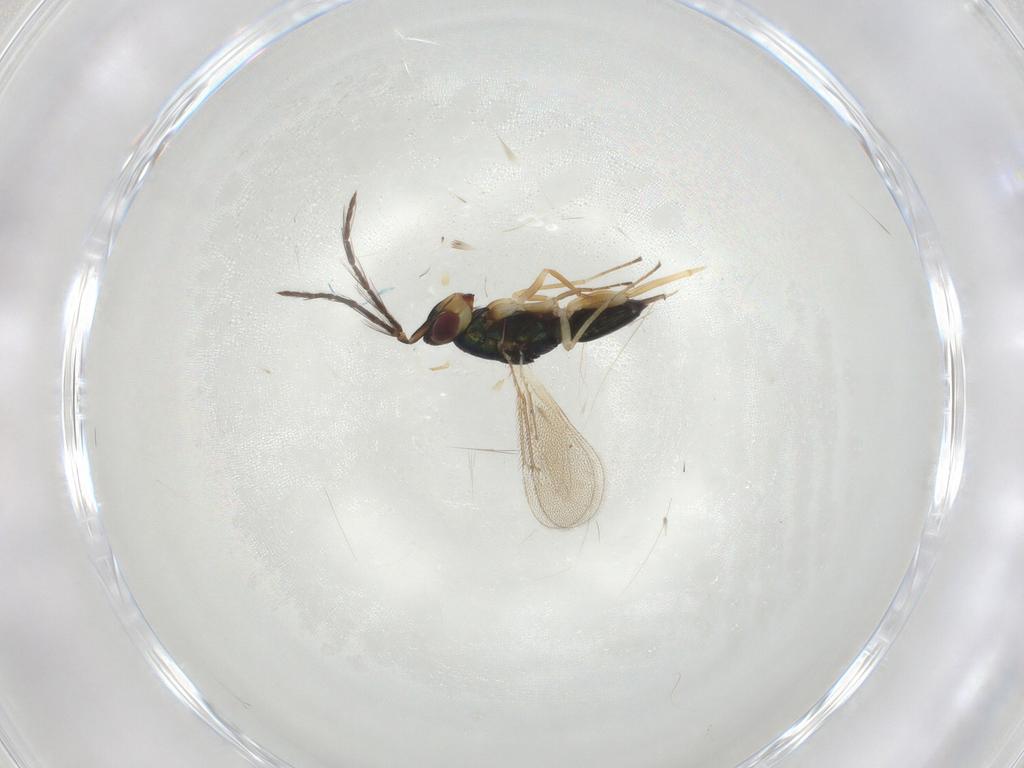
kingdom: Animalia
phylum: Arthropoda
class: Insecta
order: Hymenoptera
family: Eulophidae
